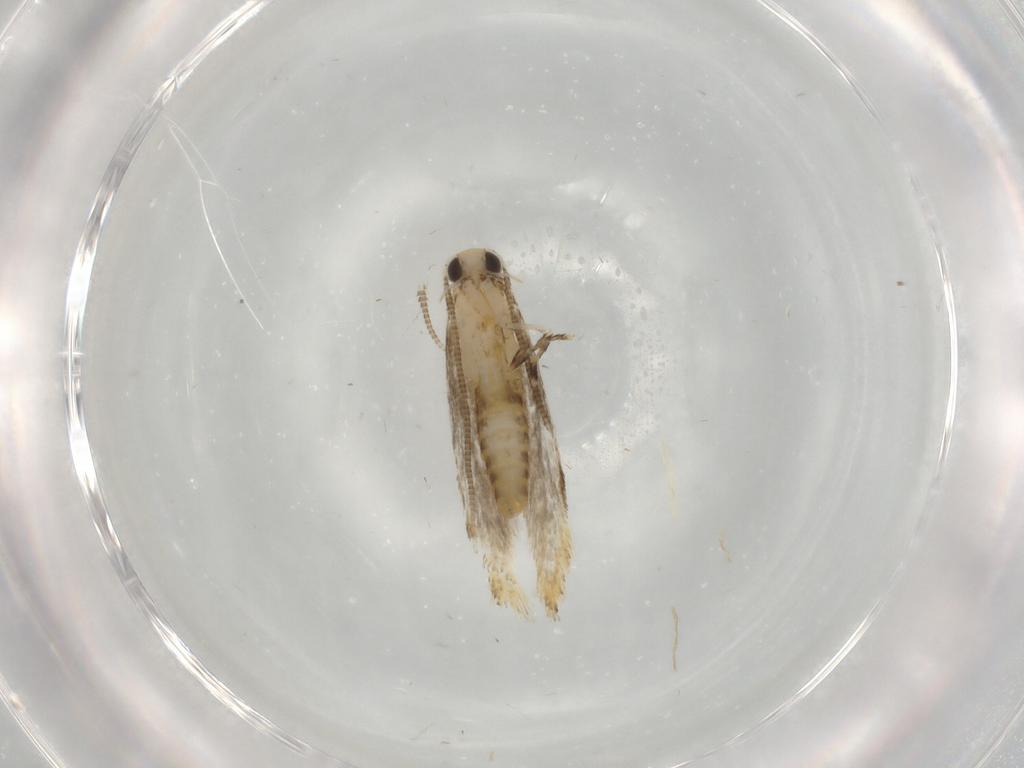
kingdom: Animalia
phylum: Arthropoda
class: Insecta
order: Lepidoptera
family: Tineidae
